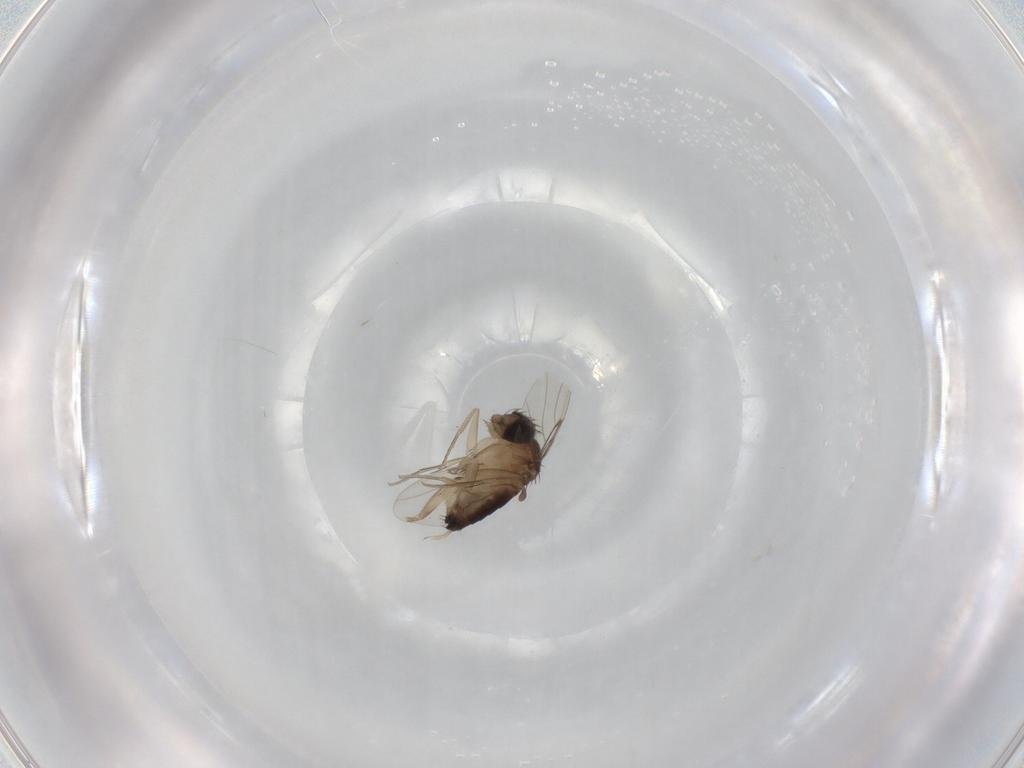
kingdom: Animalia
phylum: Arthropoda
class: Insecta
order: Diptera
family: Phoridae
